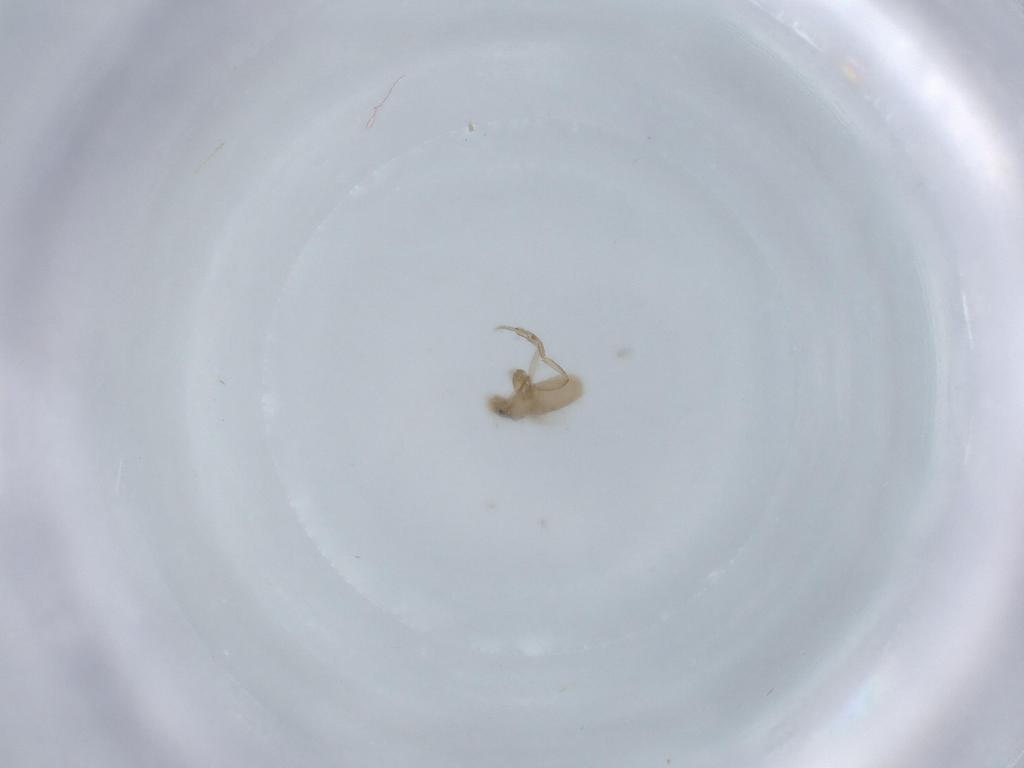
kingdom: Animalia
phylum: Arthropoda
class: Insecta
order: Diptera
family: Phoridae
